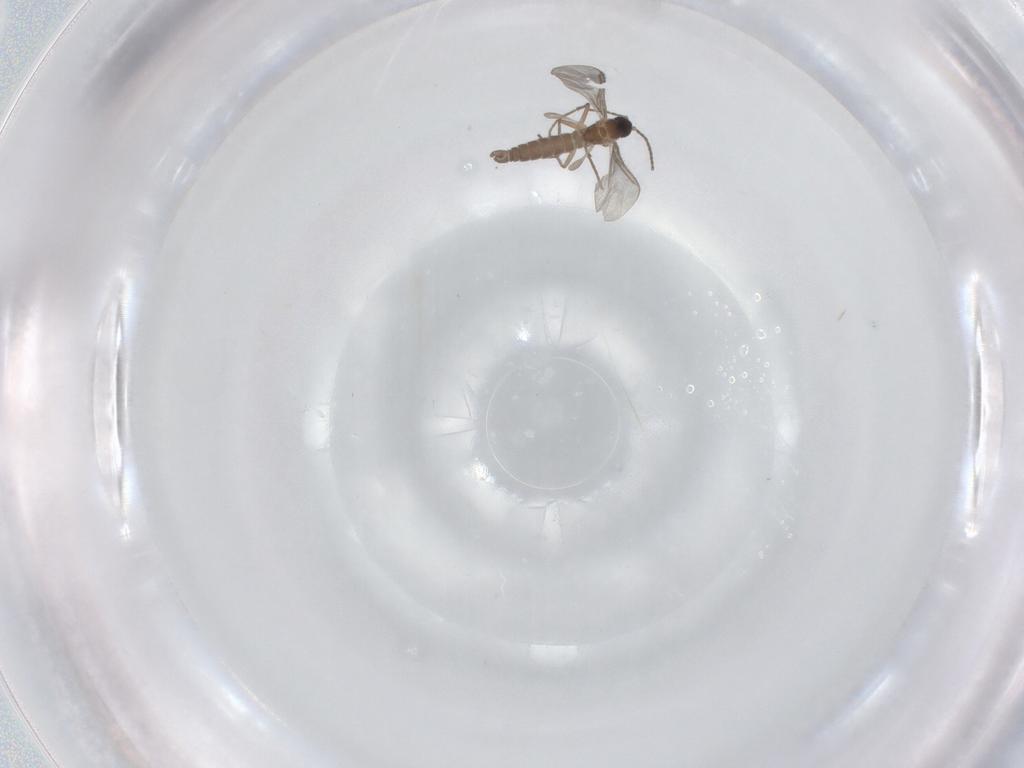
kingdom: Animalia
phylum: Arthropoda
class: Insecta
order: Diptera
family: Sciaridae
